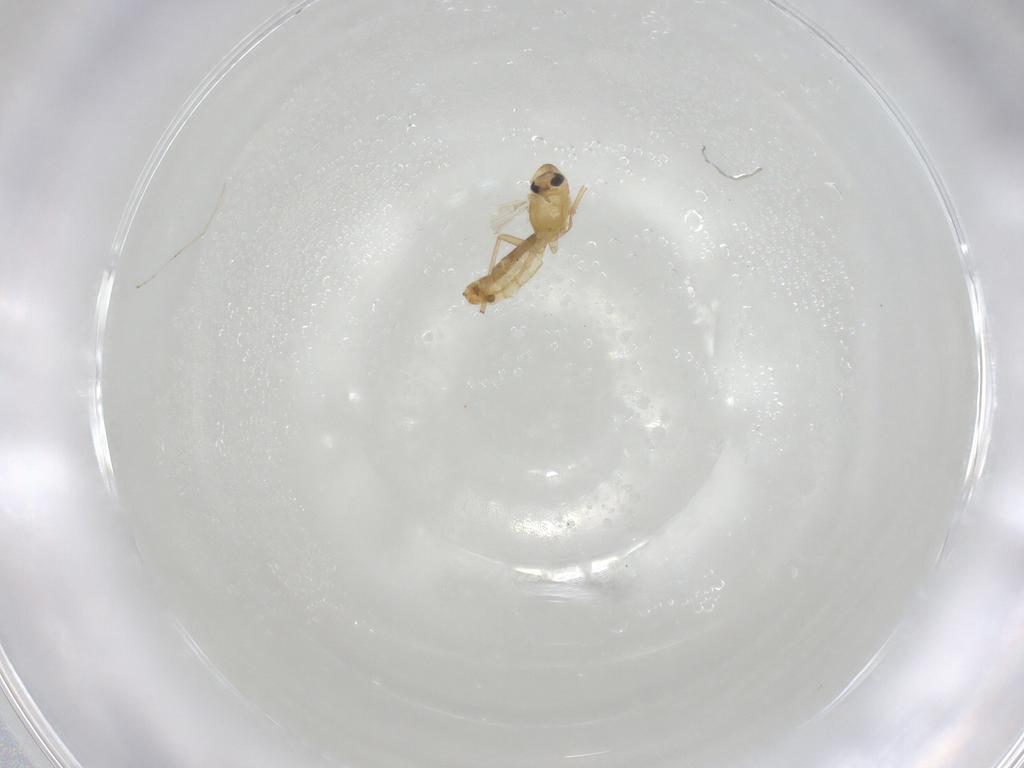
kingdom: Animalia
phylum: Arthropoda
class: Insecta
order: Diptera
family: Chironomidae
